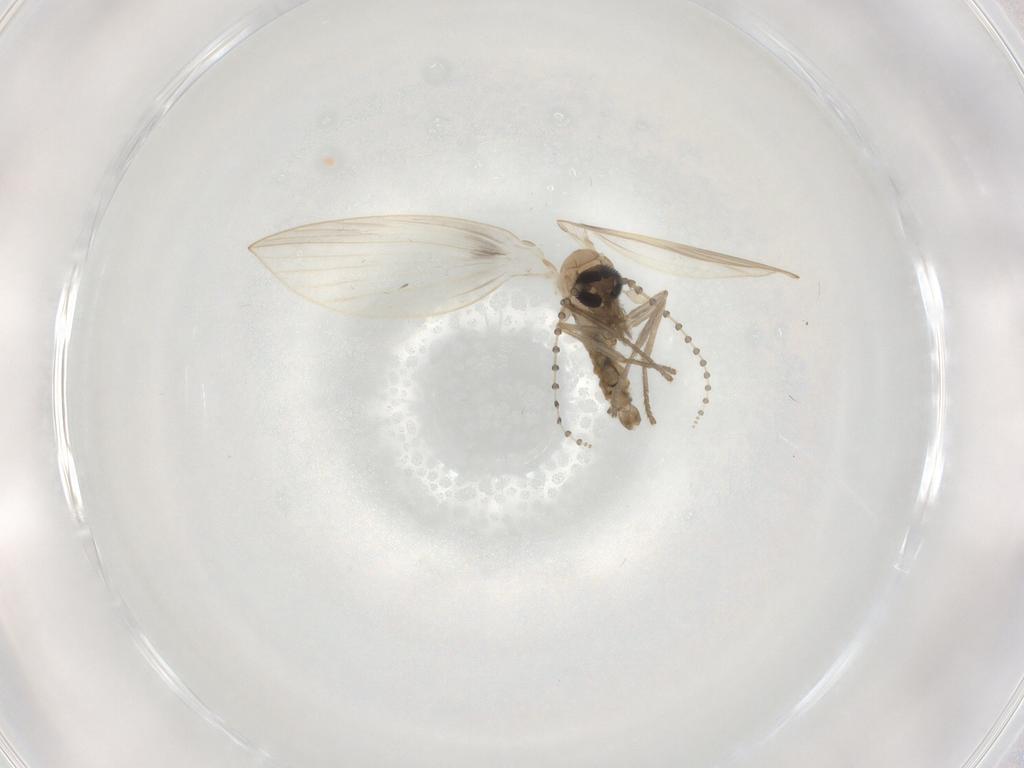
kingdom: Animalia
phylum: Arthropoda
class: Insecta
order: Diptera
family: Psychodidae
